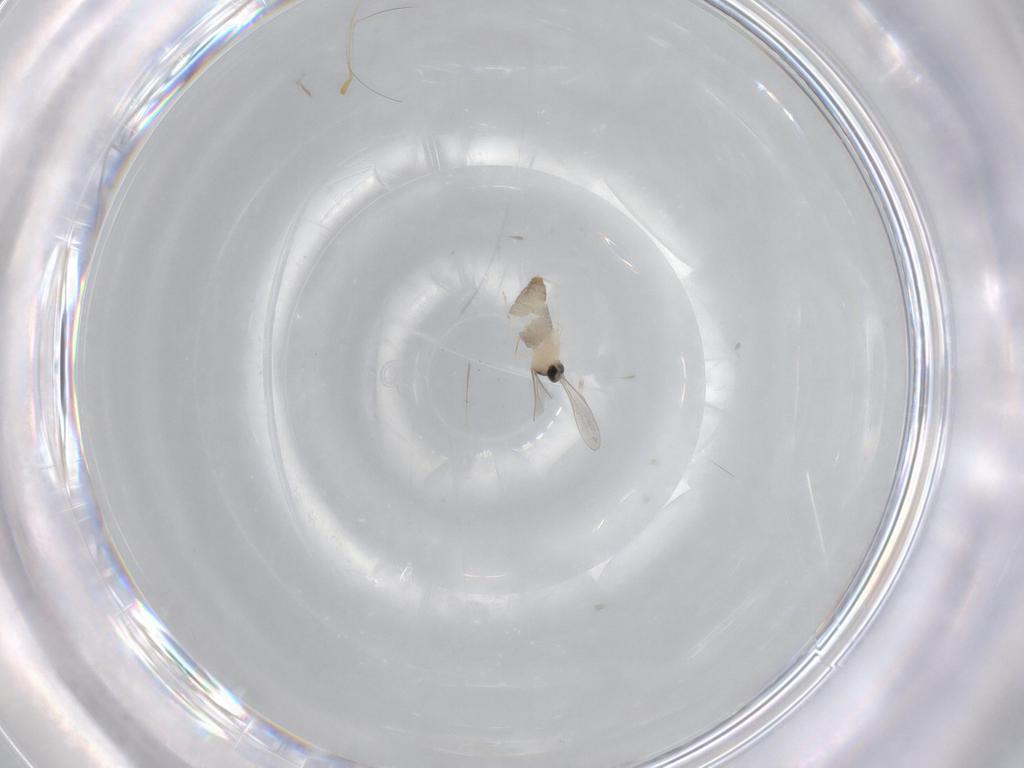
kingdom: Animalia
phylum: Arthropoda
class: Insecta
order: Diptera
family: Cecidomyiidae
